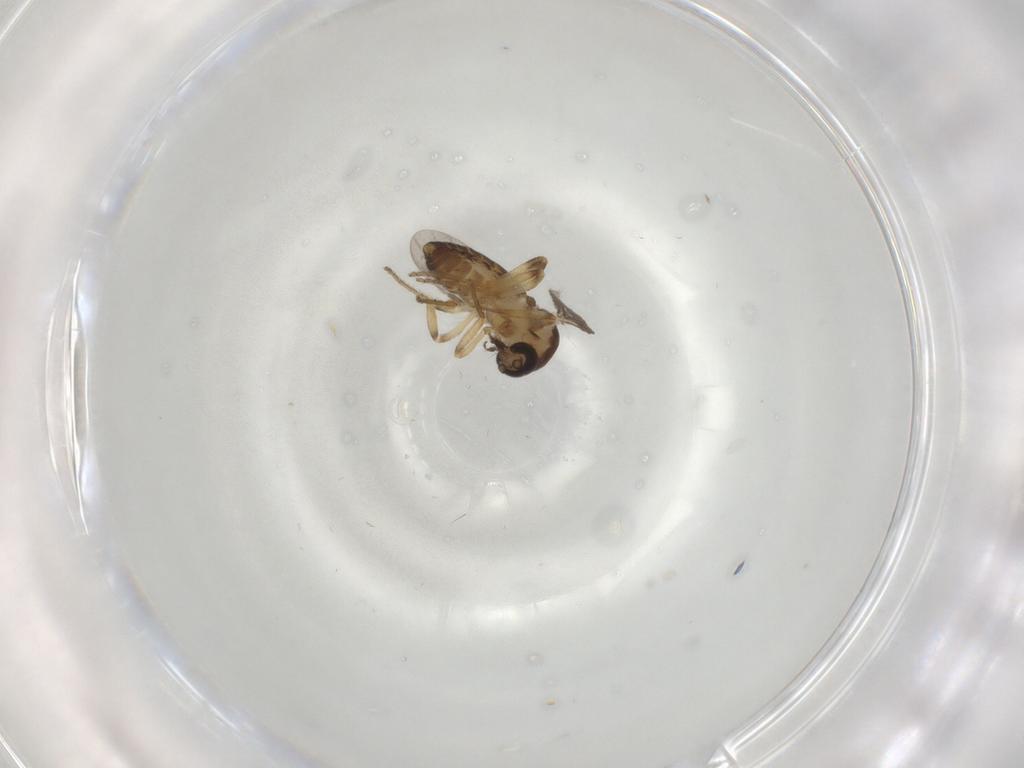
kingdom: Animalia
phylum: Arthropoda
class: Insecta
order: Diptera
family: Ceratopogonidae
